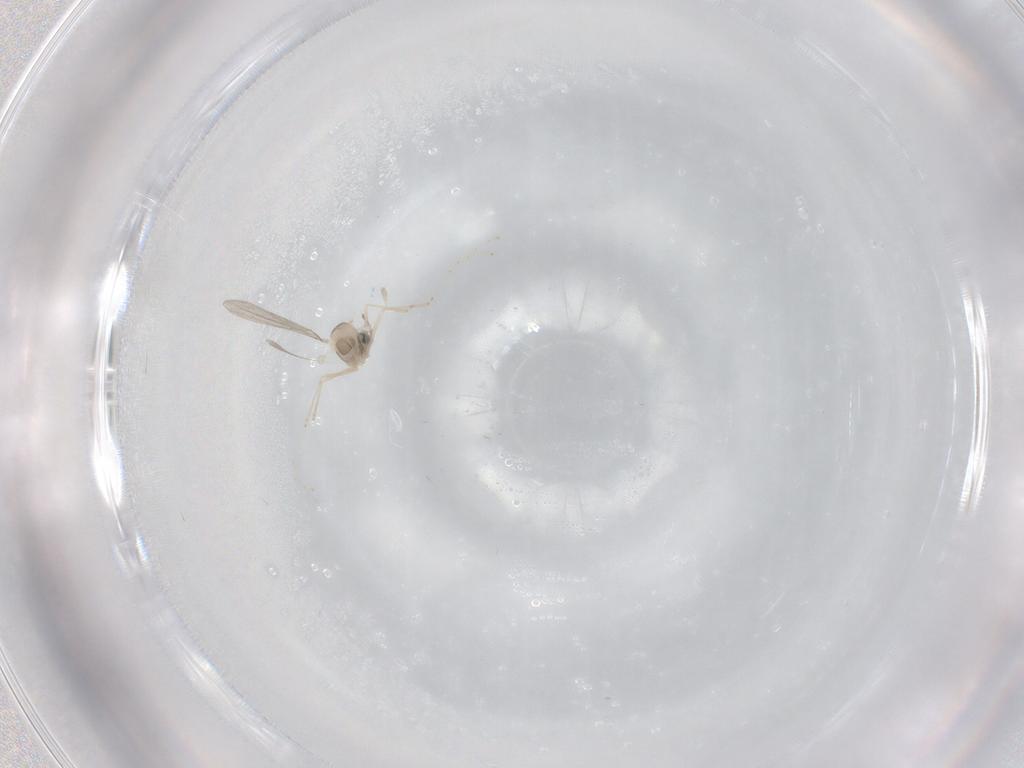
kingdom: Animalia
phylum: Arthropoda
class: Insecta
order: Diptera
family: Cecidomyiidae
